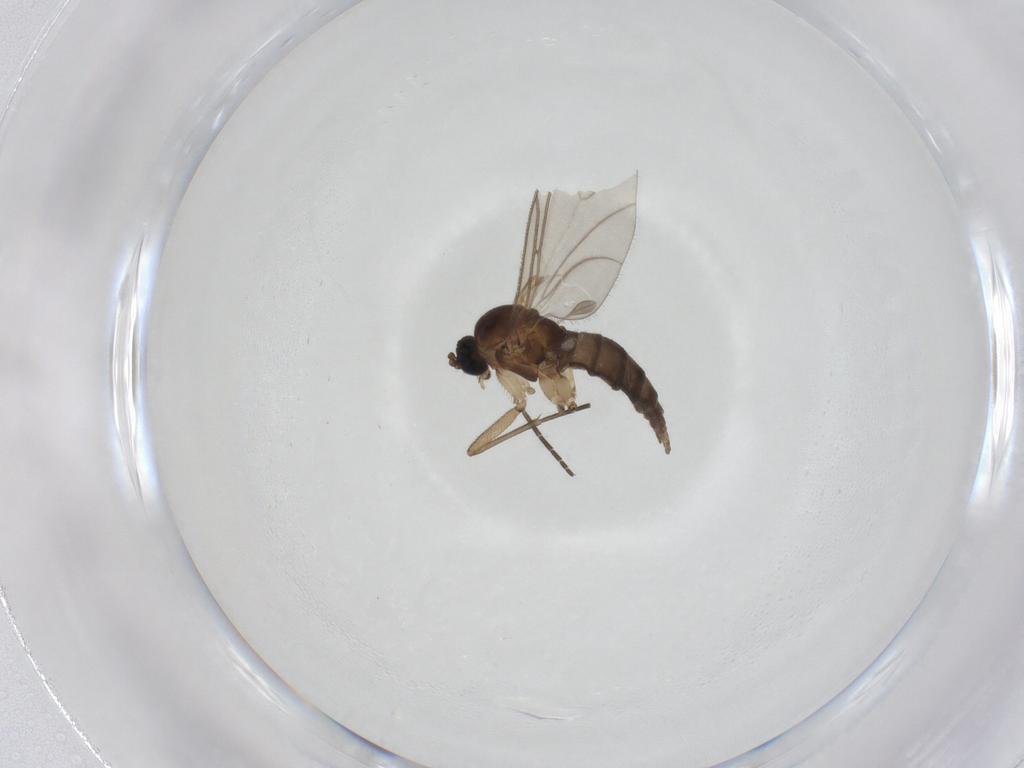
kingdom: Animalia
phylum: Arthropoda
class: Insecta
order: Diptera
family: Sciaridae
